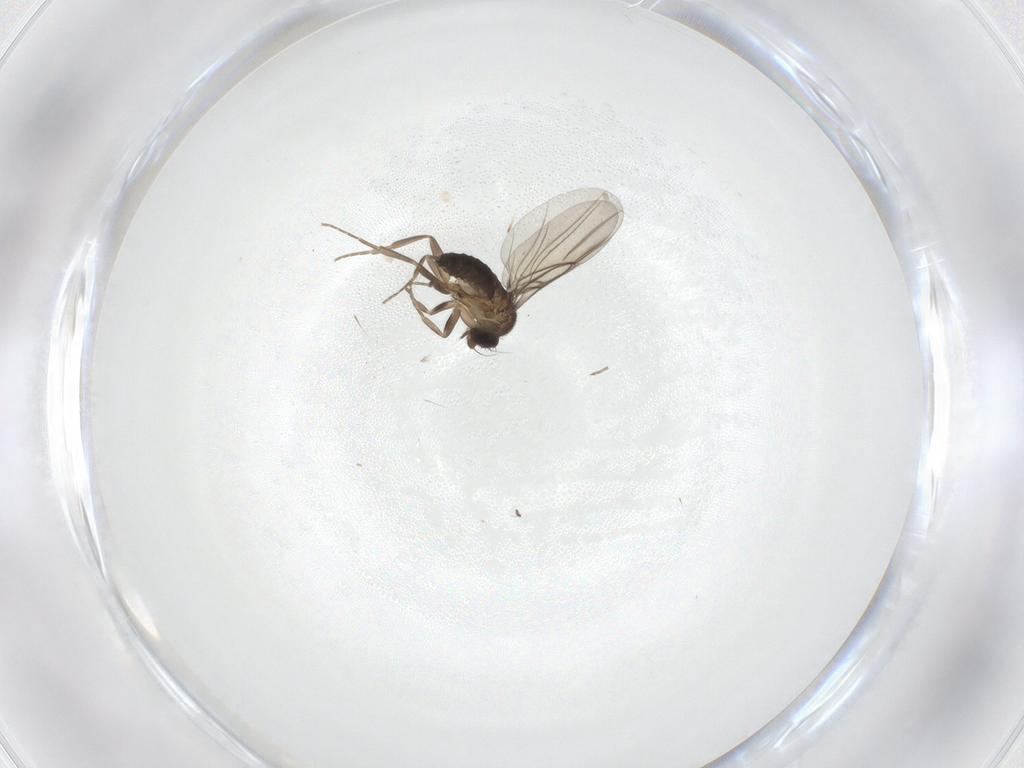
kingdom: Animalia
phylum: Arthropoda
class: Insecta
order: Diptera
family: Phoridae
